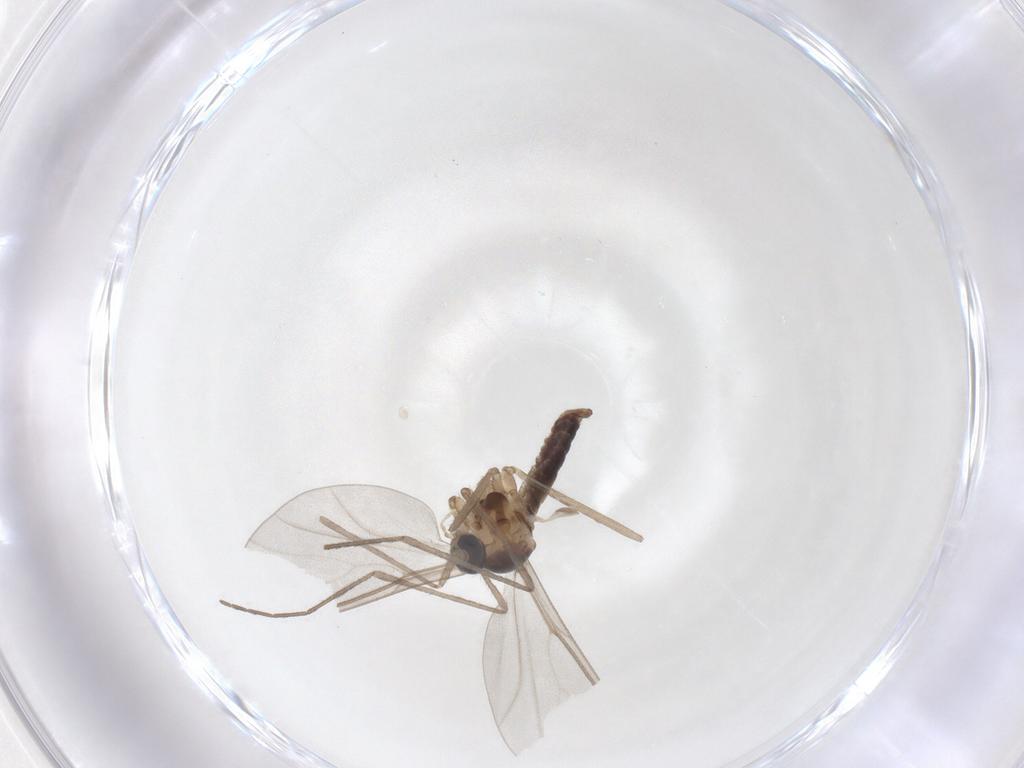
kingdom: Animalia
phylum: Arthropoda
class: Insecta
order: Diptera
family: Cecidomyiidae
